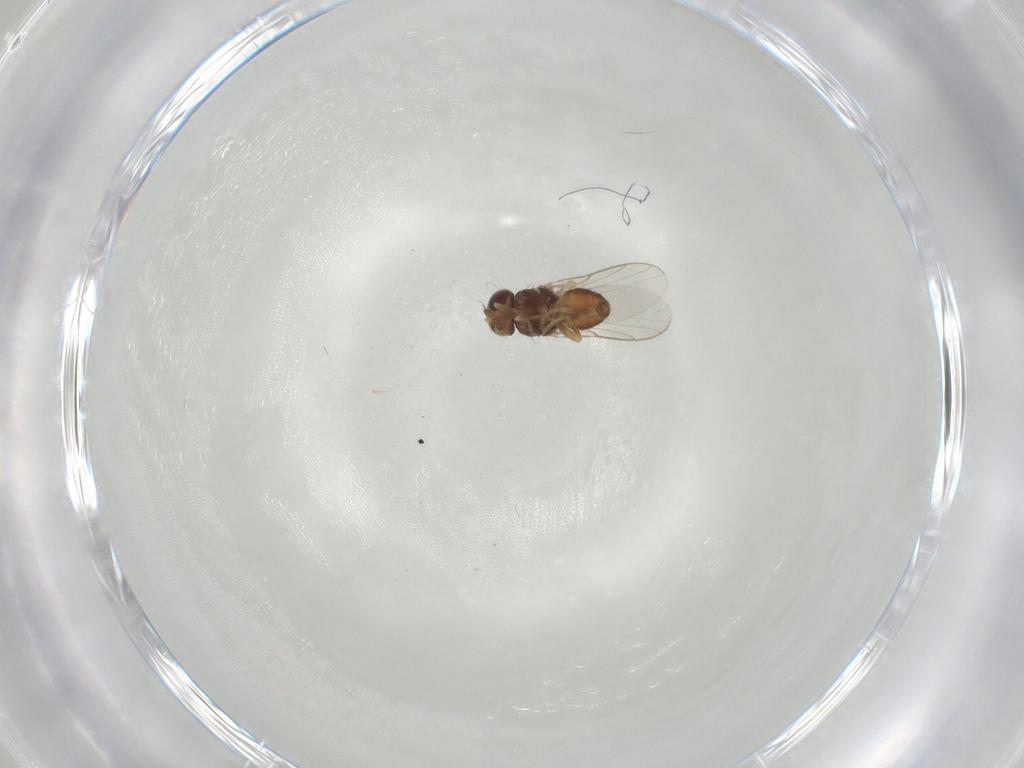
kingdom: Animalia
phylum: Arthropoda
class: Insecta
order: Diptera
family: Chloropidae
